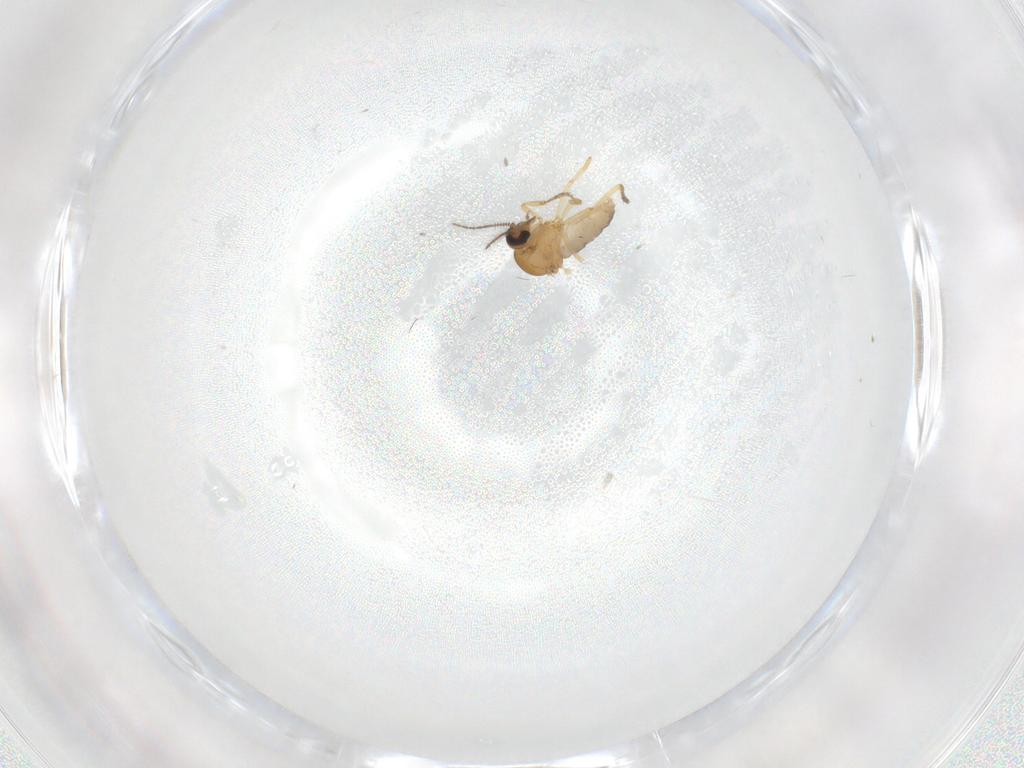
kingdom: Animalia
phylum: Arthropoda
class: Insecta
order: Diptera
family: Ceratopogonidae
